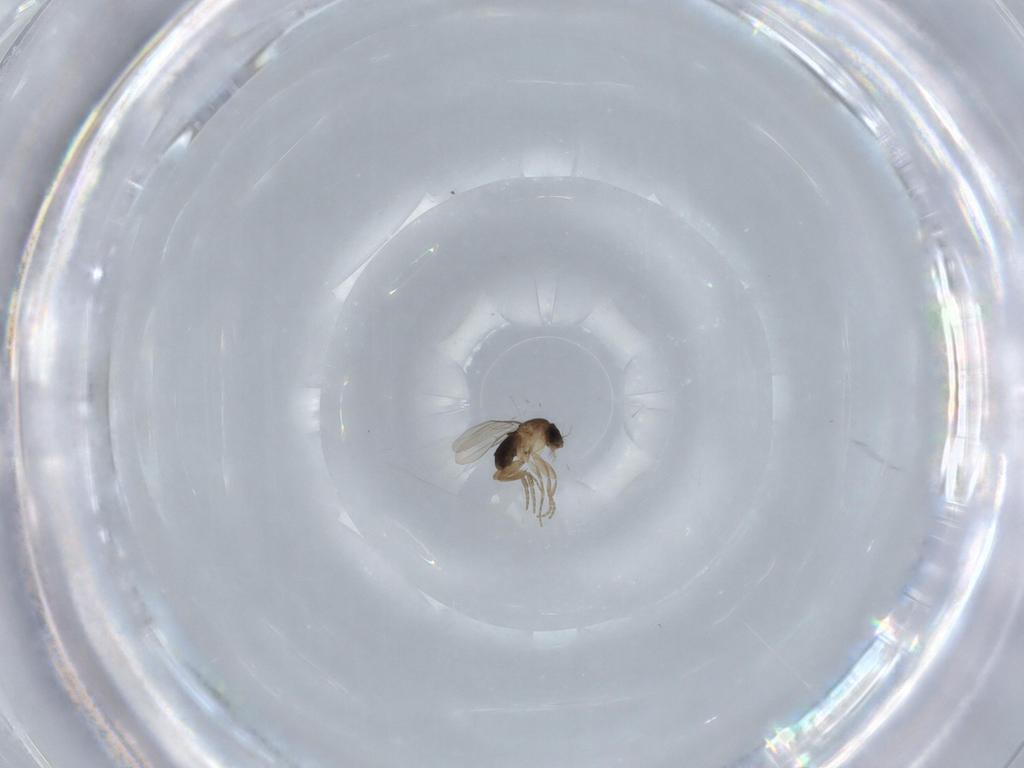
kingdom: Animalia
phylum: Arthropoda
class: Insecta
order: Diptera
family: Phoridae
